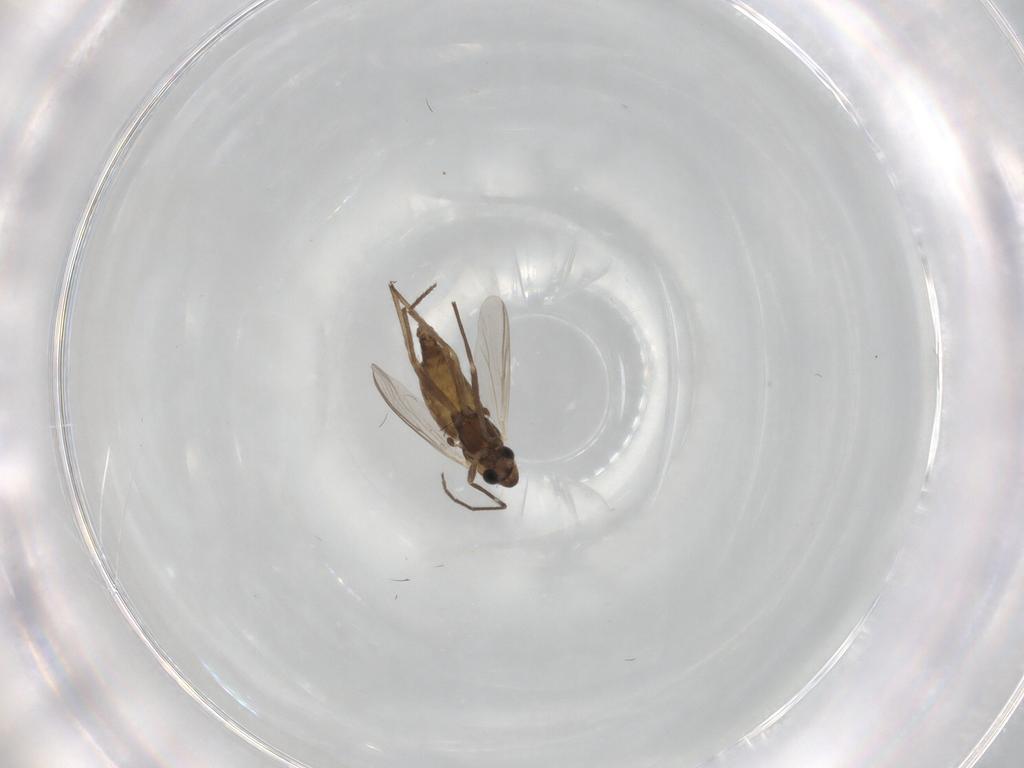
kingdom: Animalia
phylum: Arthropoda
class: Insecta
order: Diptera
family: Chironomidae
